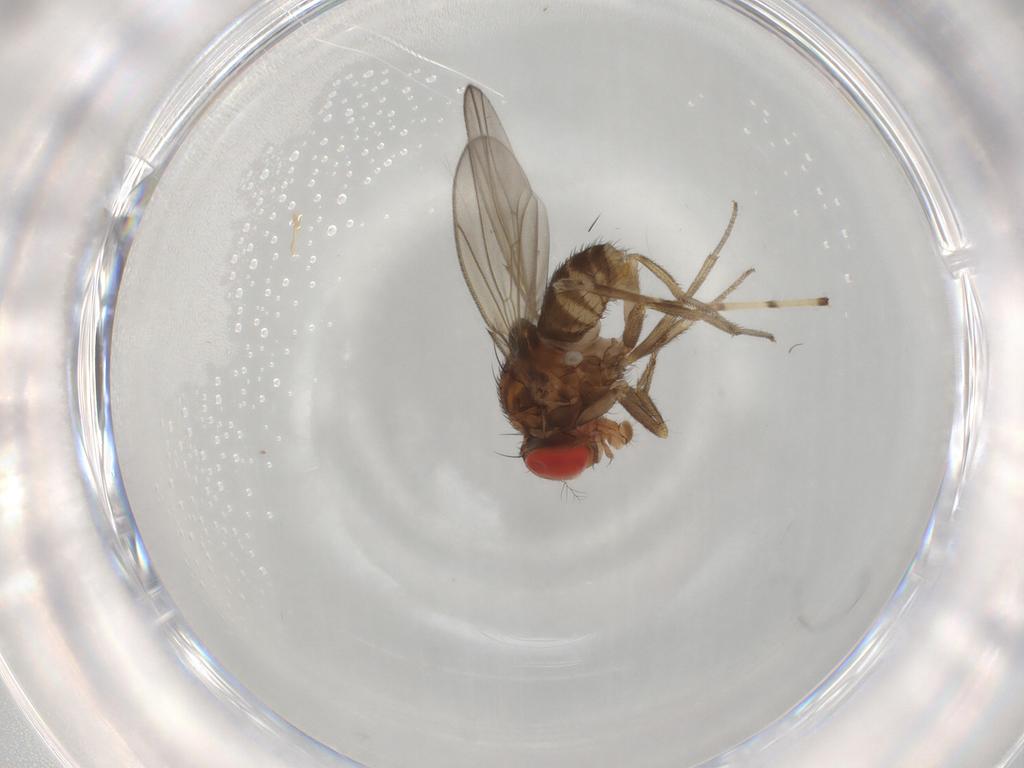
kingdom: Animalia
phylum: Arthropoda
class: Insecta
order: Diptera
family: Drosophilidae
